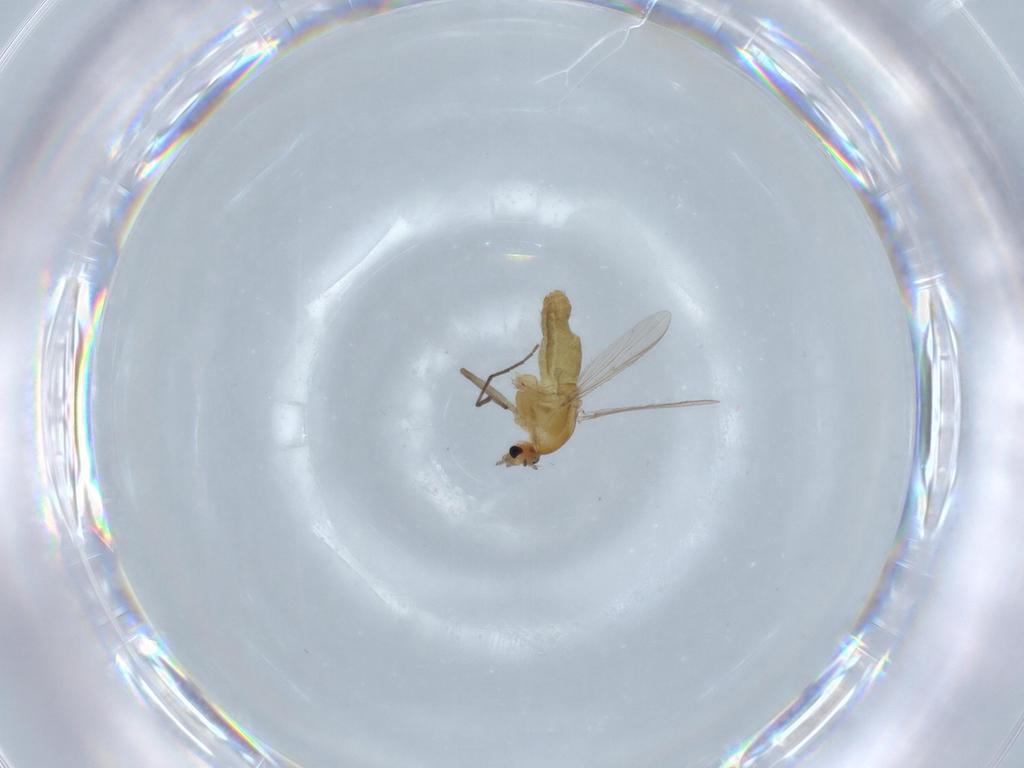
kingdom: Animalia
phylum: Arthropoda
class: Insecta
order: Diptera
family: Chironomidae
